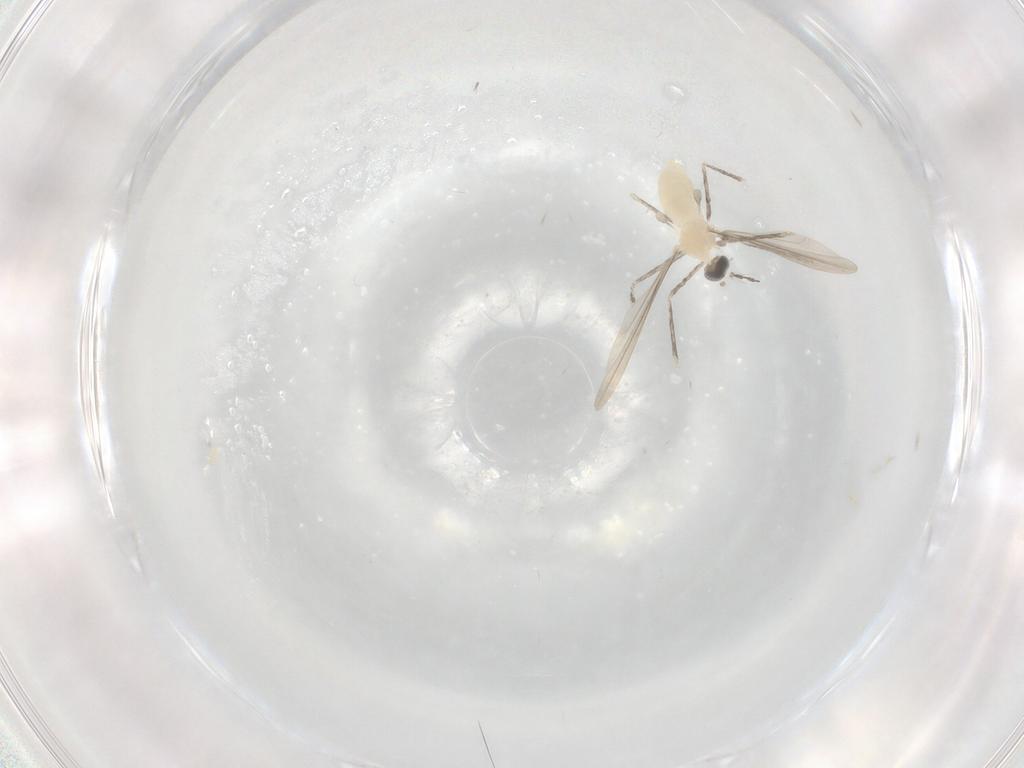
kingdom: Animalia
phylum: Arthropoda
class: Insecta
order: Diptera
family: Cecidomyiidae
